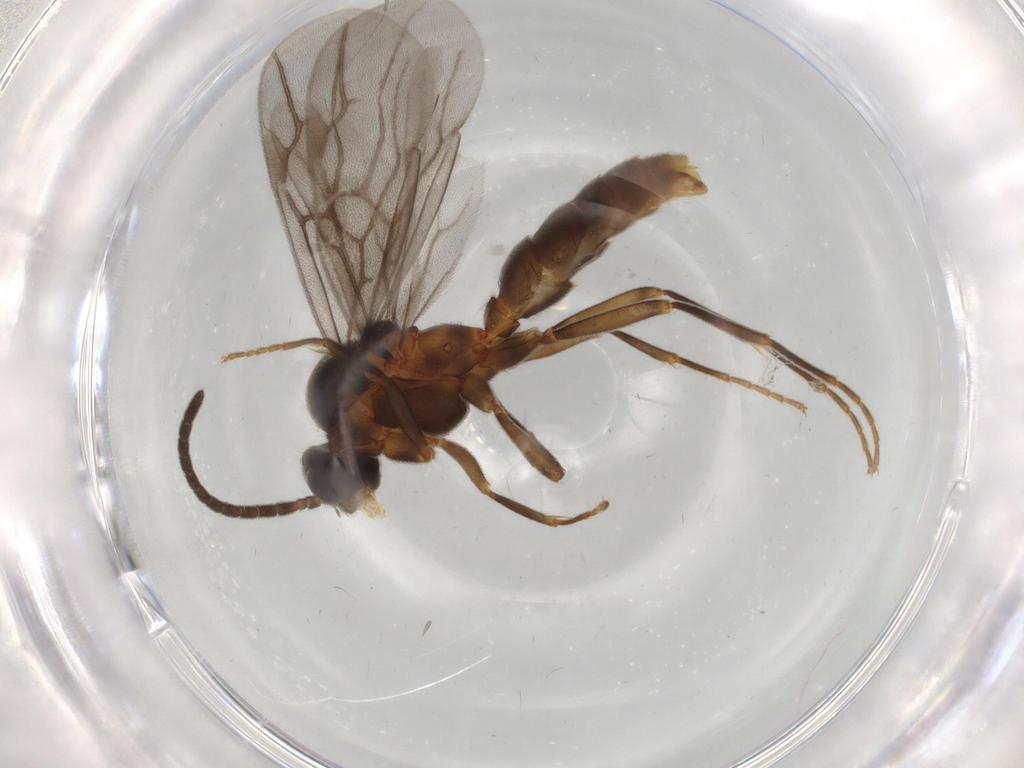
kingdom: Animalia
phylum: Arthropoda
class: Insecta
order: Hymenoptera
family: Formicidae
